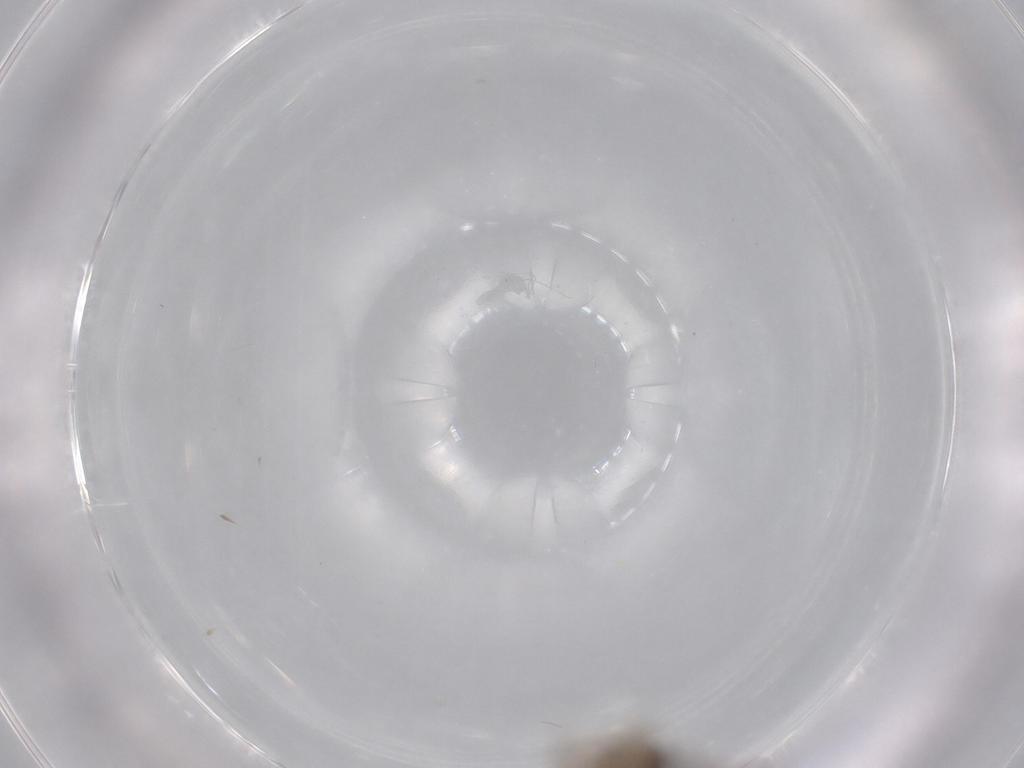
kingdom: Animalia
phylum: Arthropoda
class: Insecta
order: Diptera
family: Cecidomyiidae
